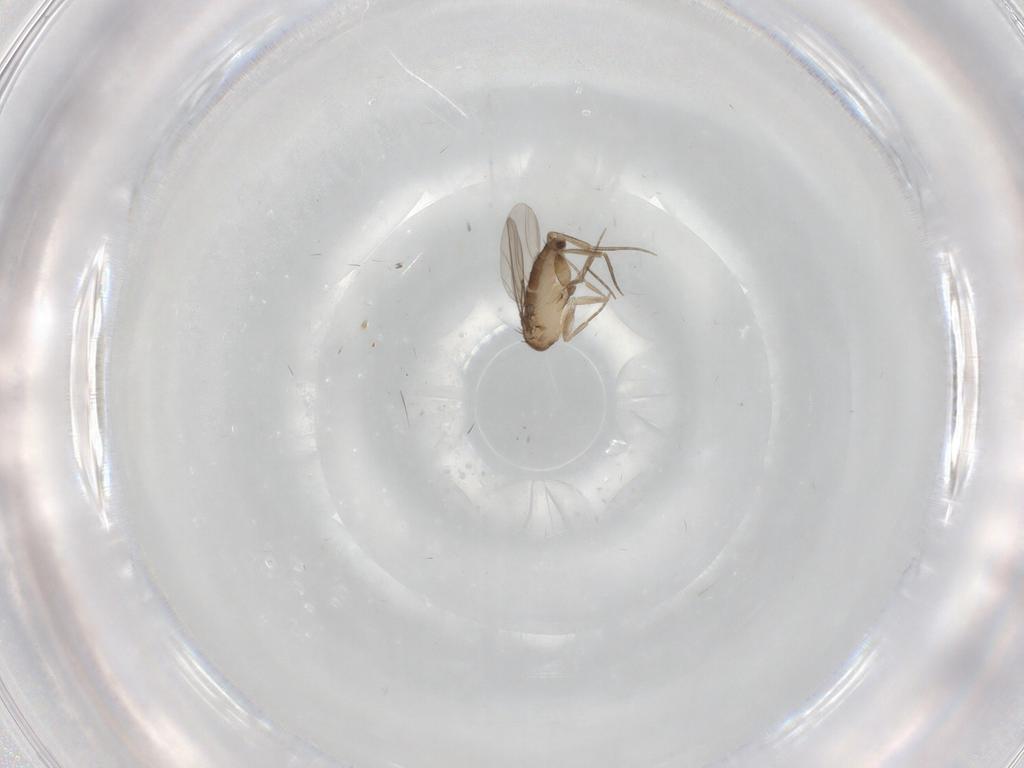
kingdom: Animalia
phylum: Arthropoda
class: Insecta
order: Diptera
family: Phoridae
